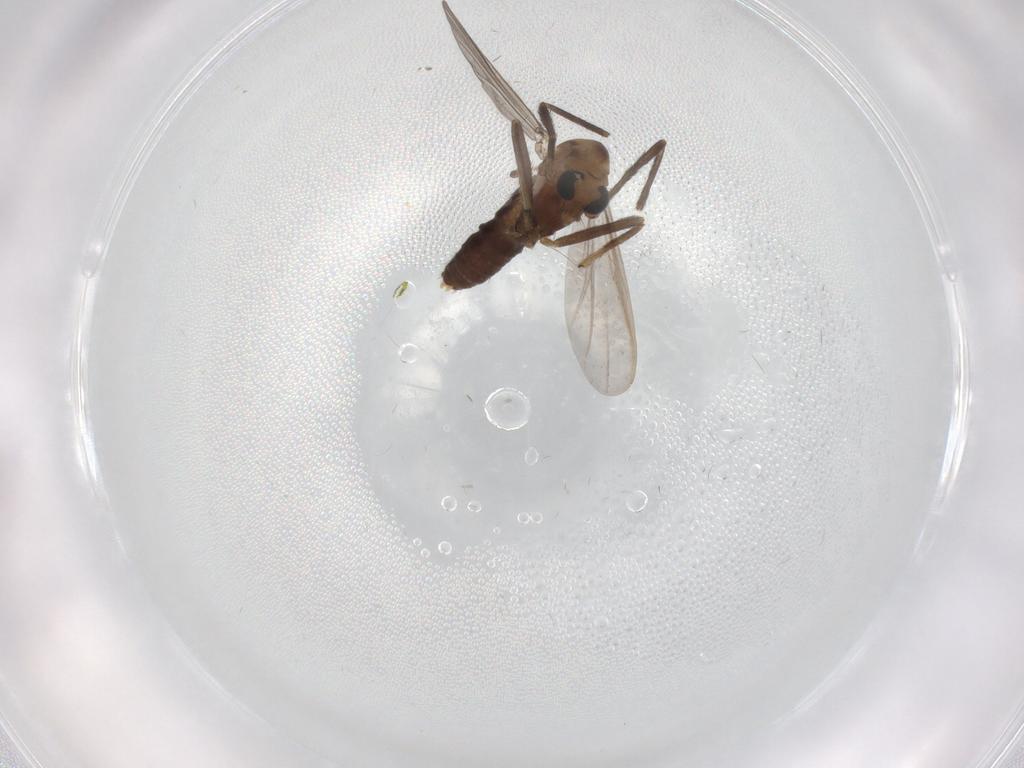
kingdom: Animalia
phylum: Arthropoda
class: Insecta
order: Diptera
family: Chironomidae
